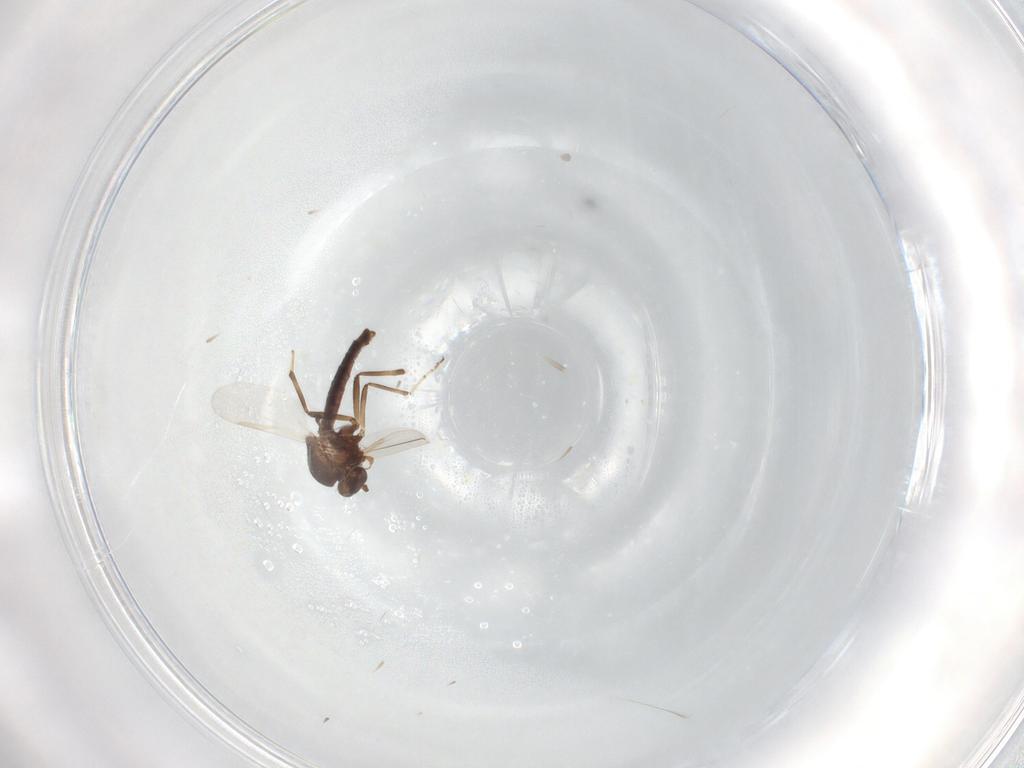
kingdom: Animalia
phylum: Arthropoda
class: Insecta
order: Diptera
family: Ceratopogonidae
